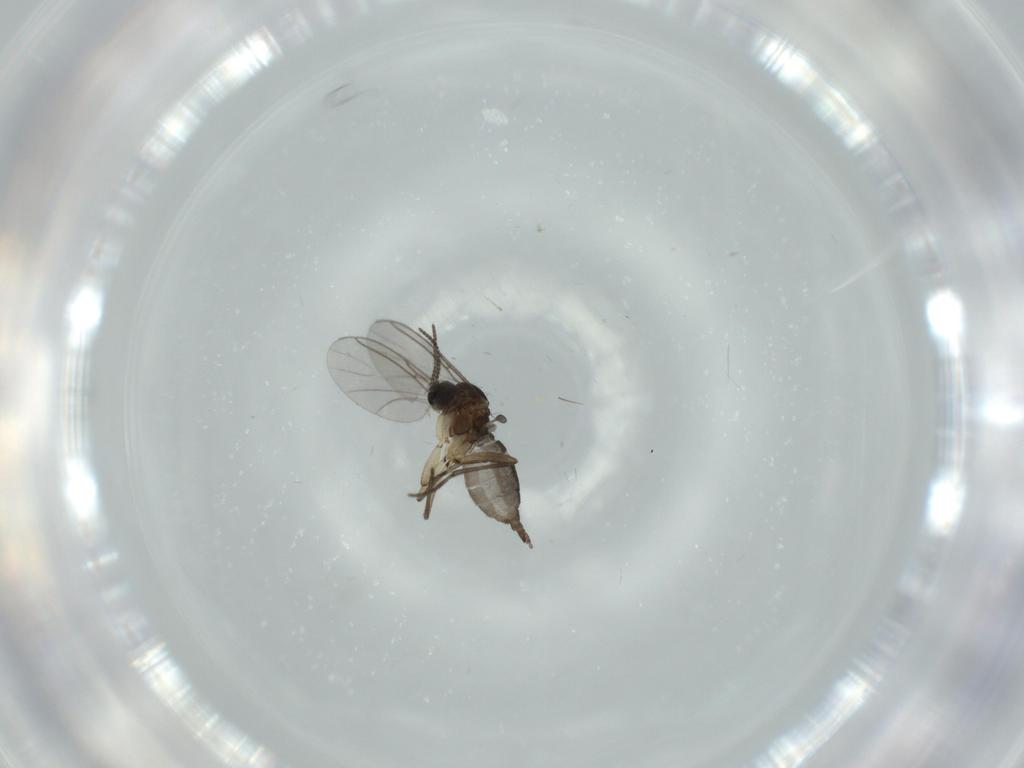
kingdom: Animalia
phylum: Arthropoda
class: Insecta
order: Diptera
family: Sciaridae
